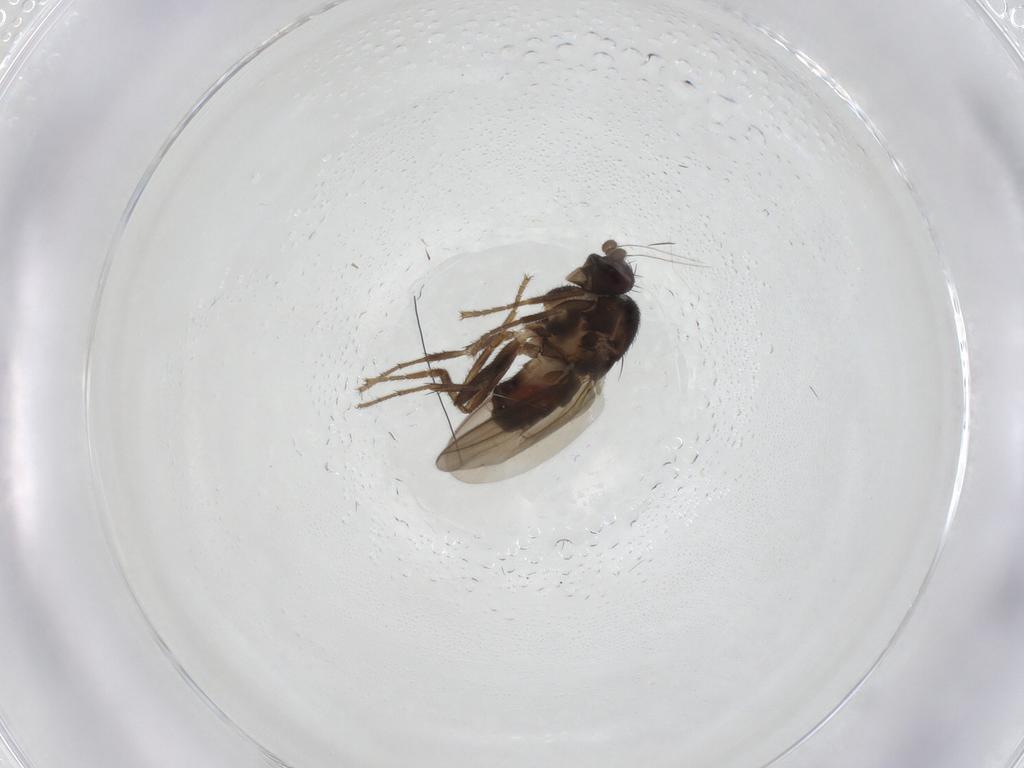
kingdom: Animalia
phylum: Arthropoda
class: Insecta
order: Diptera
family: Sphaeroceridae
